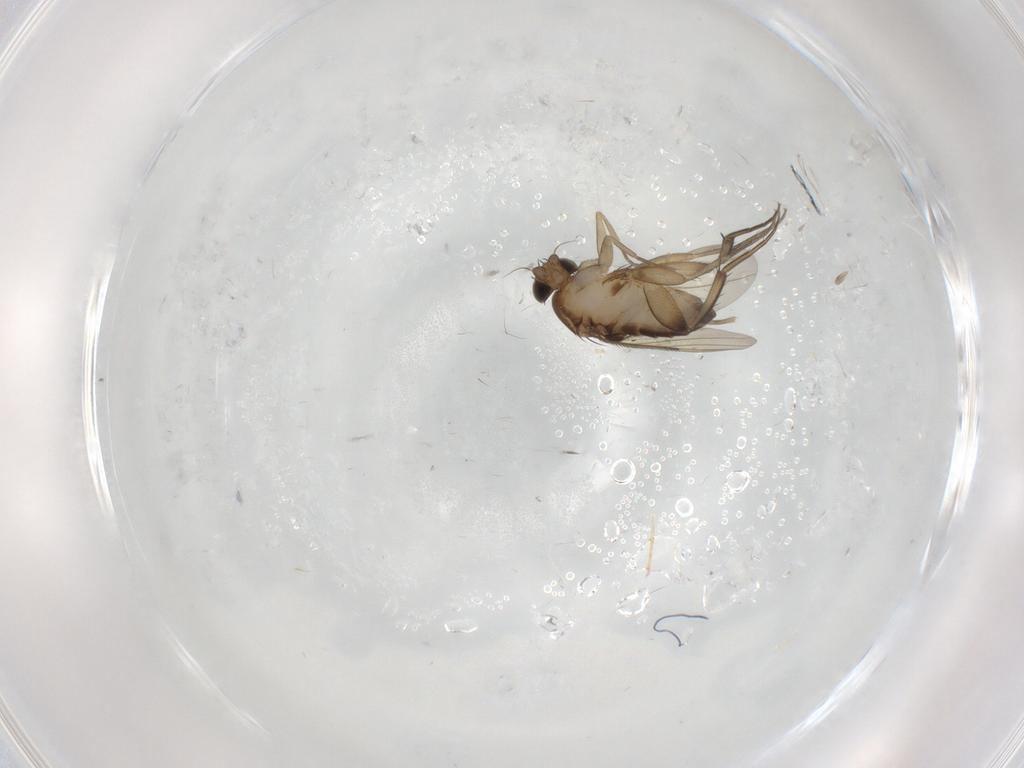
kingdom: Animalia
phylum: Arthropoda
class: Insecta
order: Diptera
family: Phoridae
